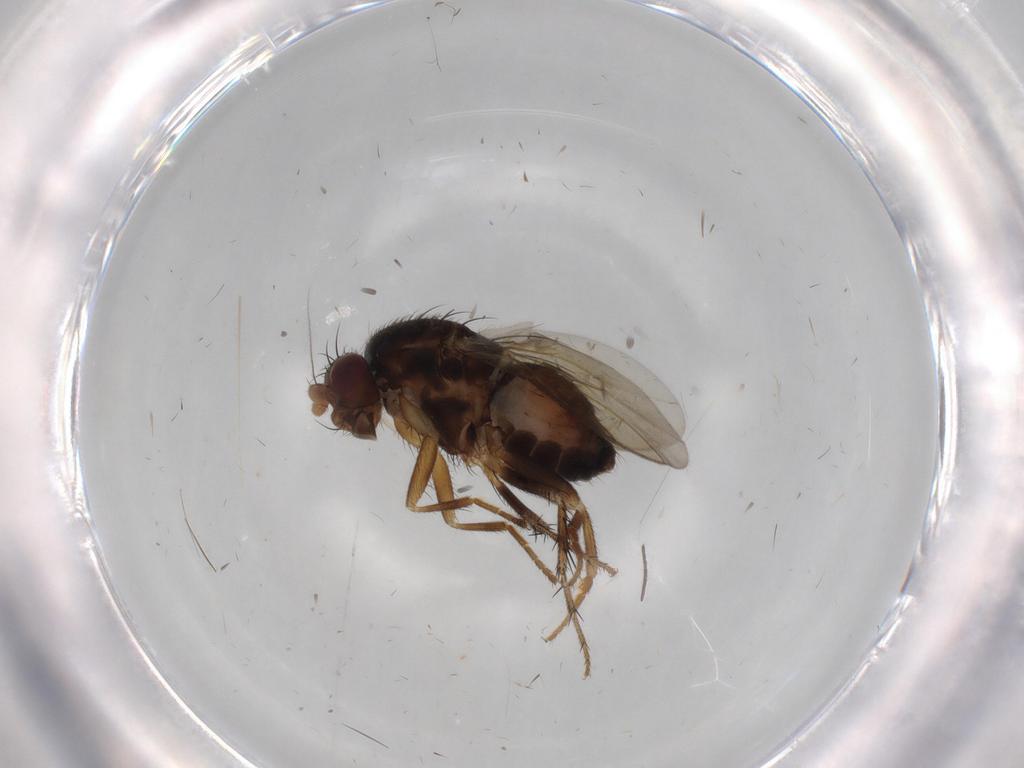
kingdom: Animalia
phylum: Arthropoda
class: Insecta
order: Diptera
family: Sphaeroceridae
